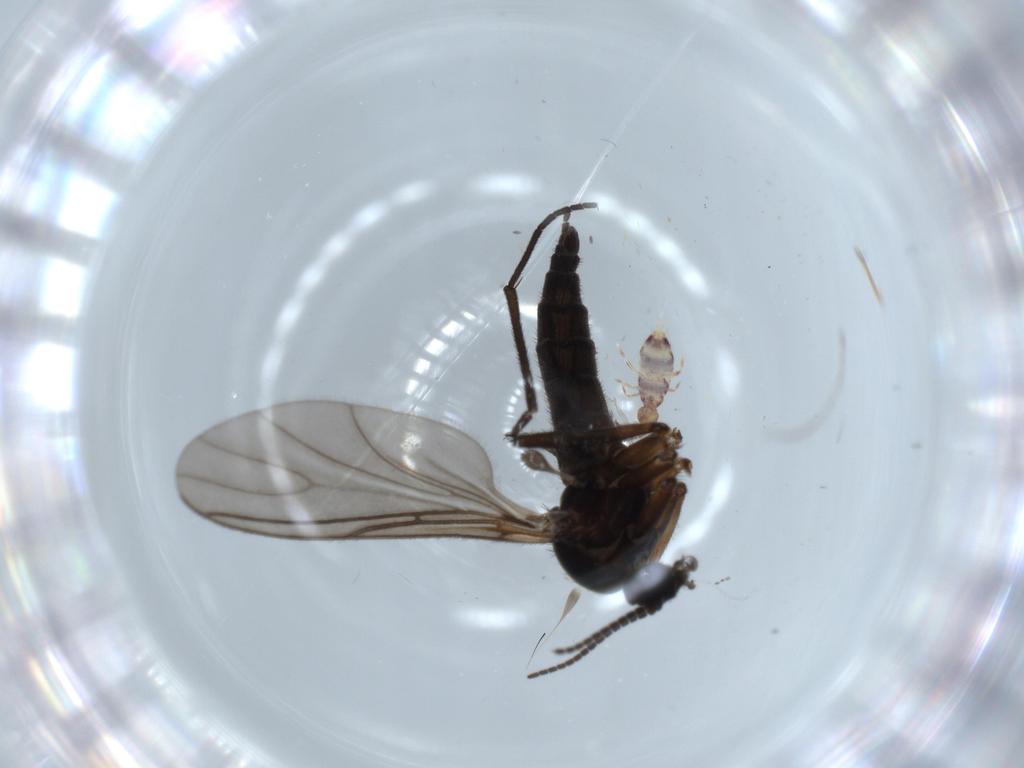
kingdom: Animalia
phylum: Arthropoda
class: Insecta
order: Diptera
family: Sciaridae
